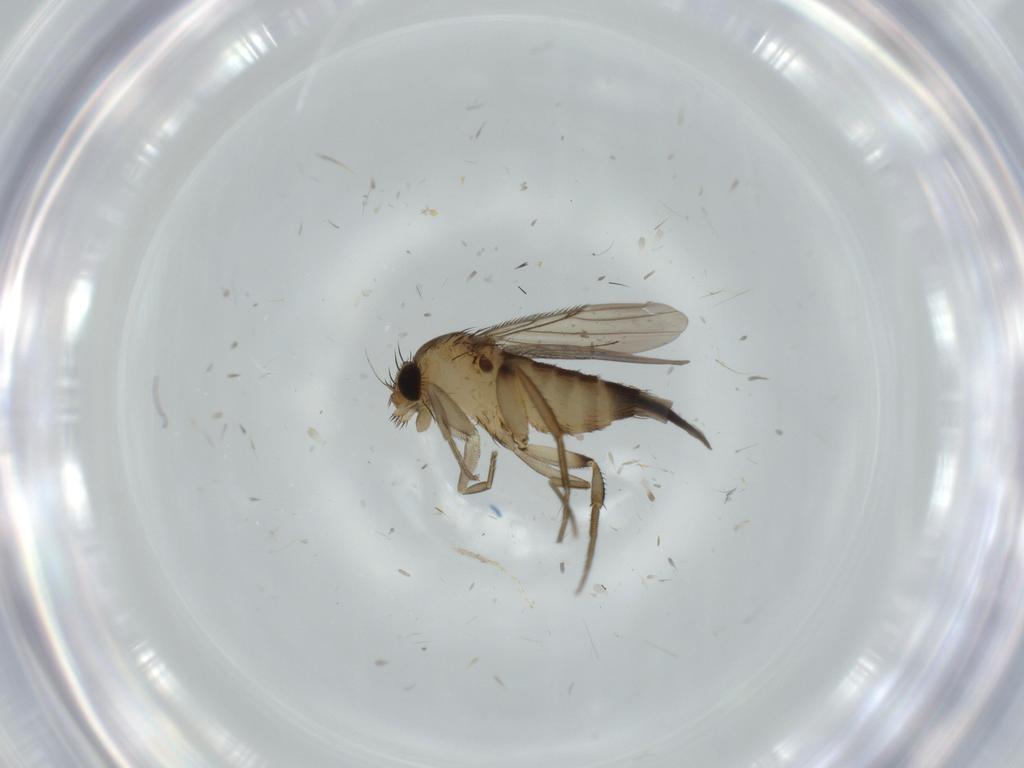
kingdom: Animalia
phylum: Arthropoda
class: Insecta
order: Diptera
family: Phoridae
